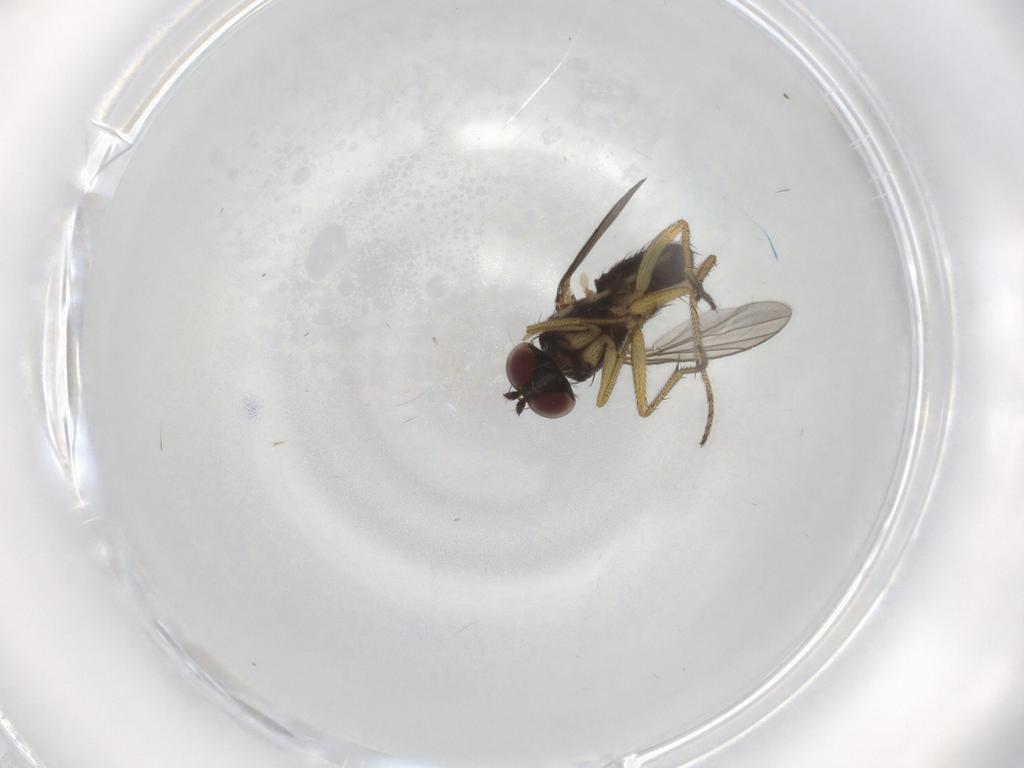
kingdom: Animalia
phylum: Arthropoda
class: Insecta
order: Diptera
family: Dolichopodidae
